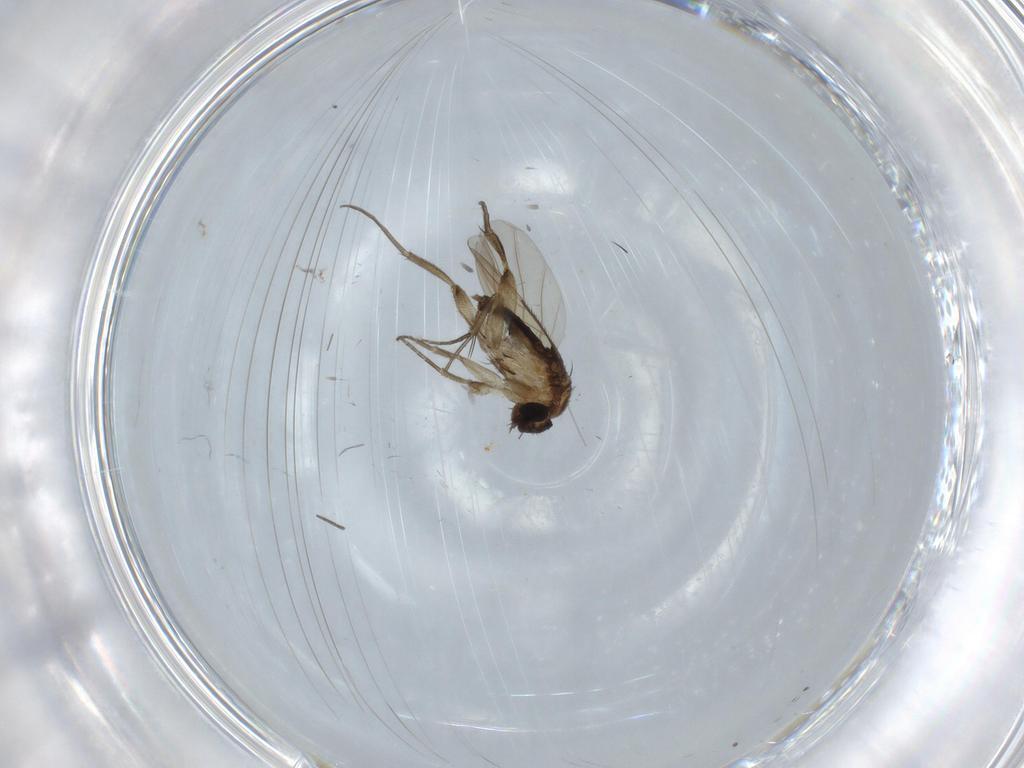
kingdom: Animalia
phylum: Arthropoda
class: Insecta
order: Diptera
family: Phoridae
